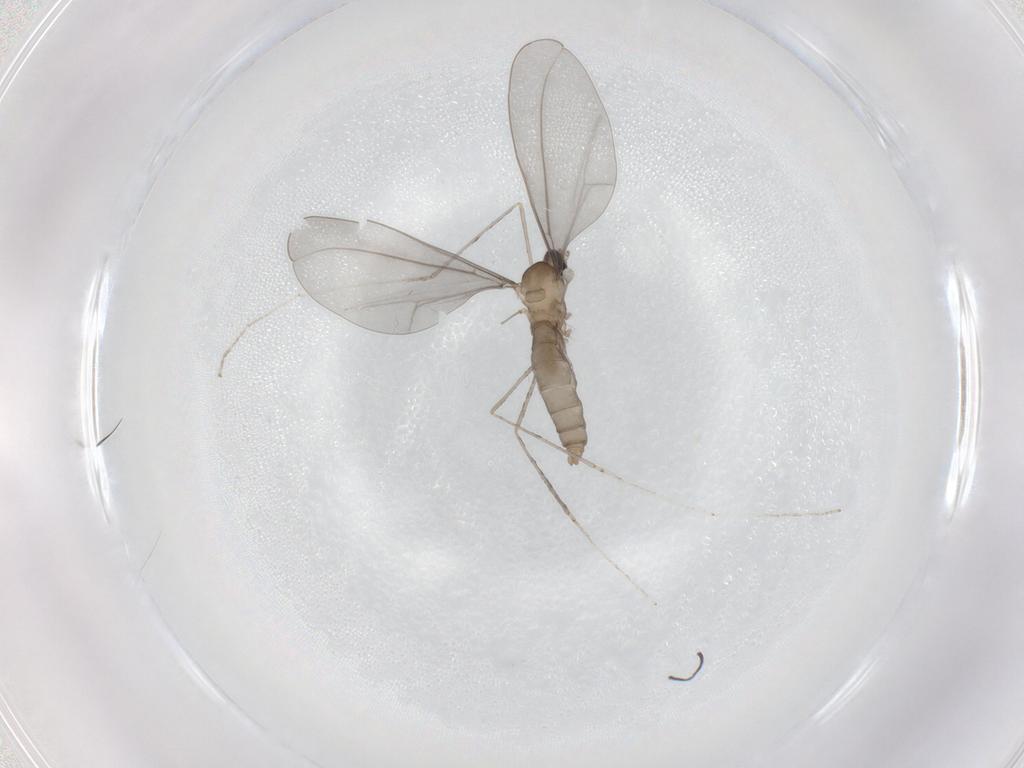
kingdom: Animalia
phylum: Arthropoda
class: Insecta
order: Diptera
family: Cecidomyiidae
